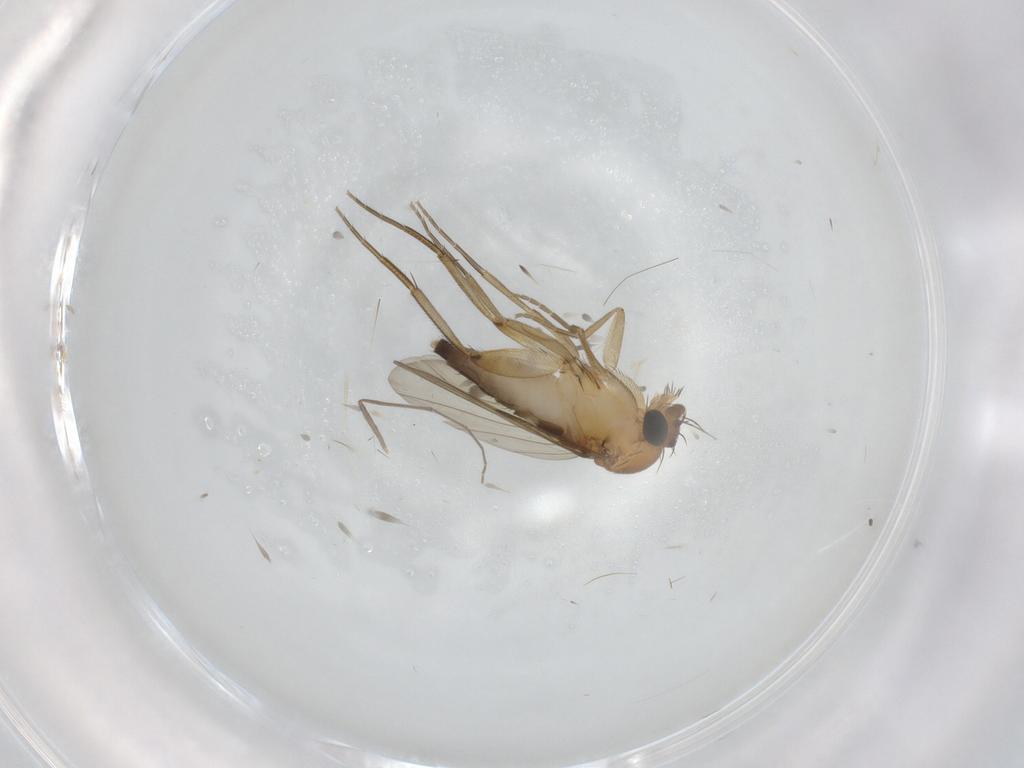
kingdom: Animalia
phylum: Arthropoda
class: Insecta
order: Diptera
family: Phoridae
